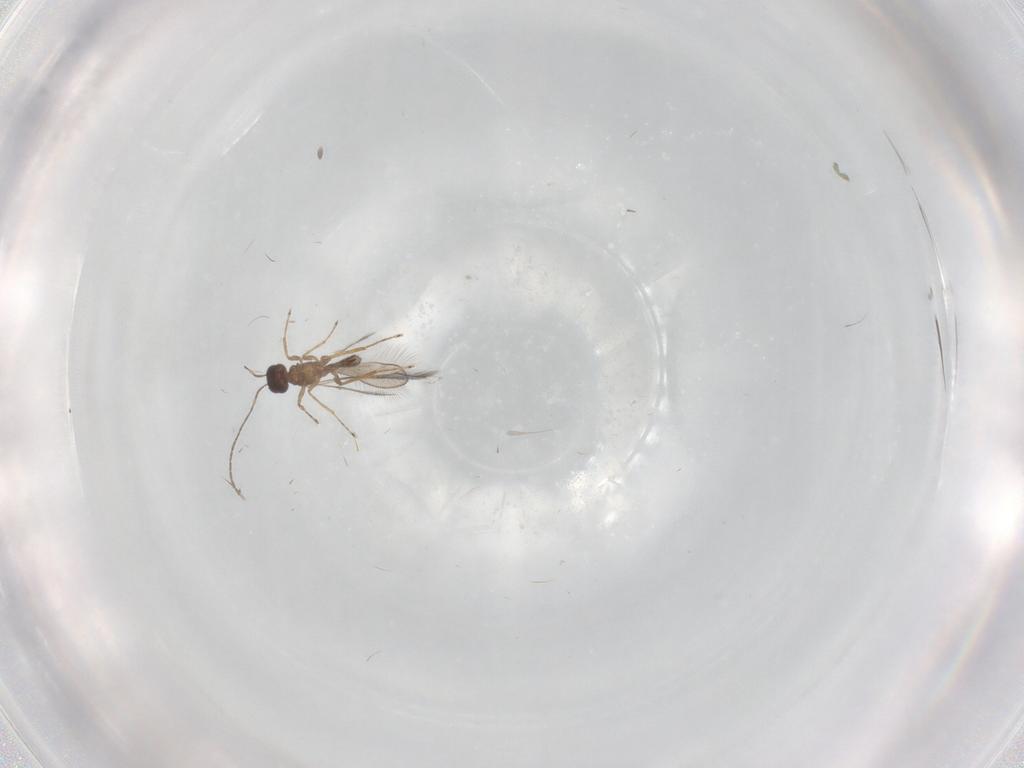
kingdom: Animalia
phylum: Arthropoda
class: Insecta
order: Hymenoptera
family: Mymaridae
